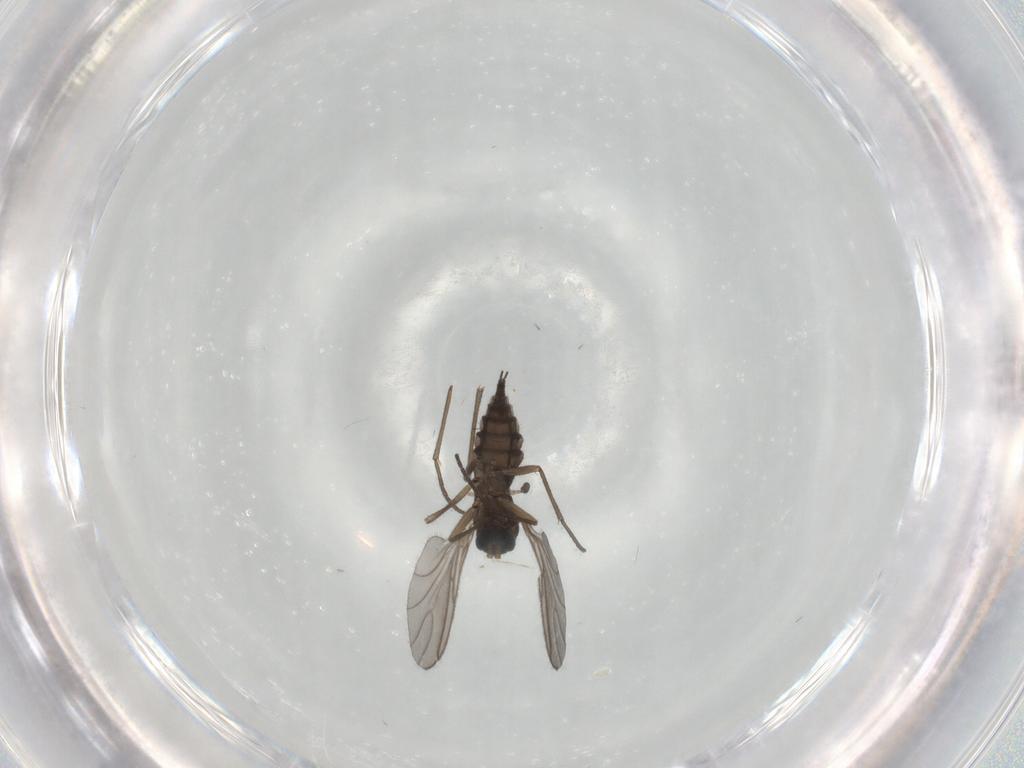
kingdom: Animalia
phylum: Arthropoda
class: Insecta
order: Diptera
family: Sciaridae
